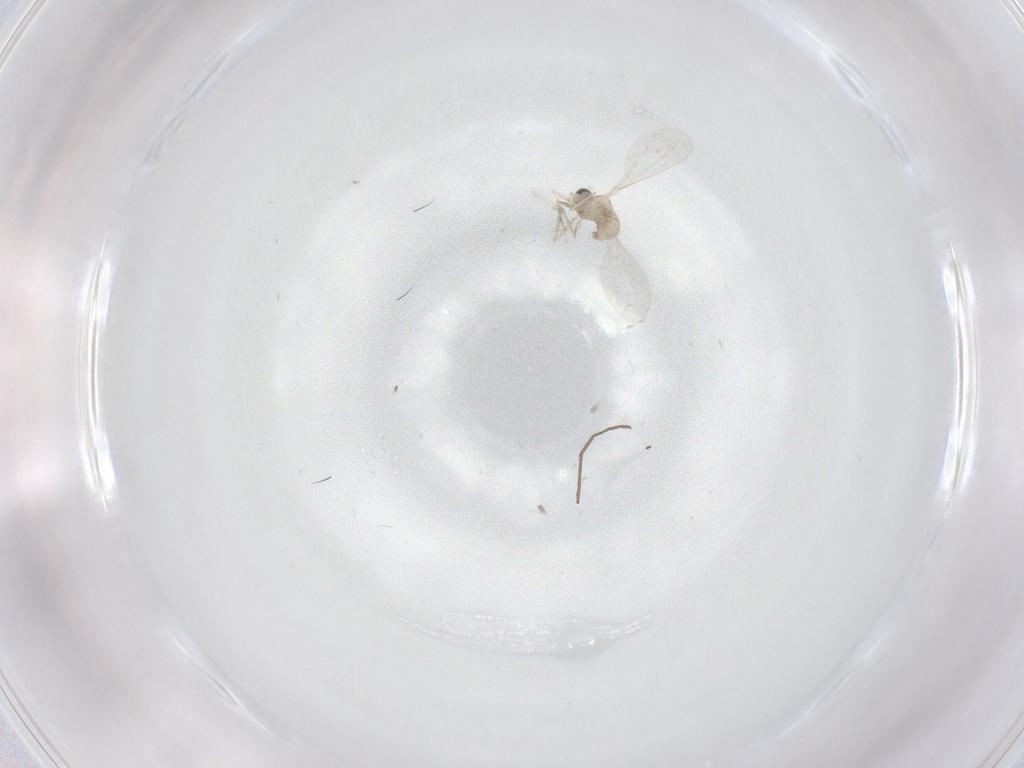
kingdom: Animalia
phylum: Arthropoda
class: Insecta
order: Diptera
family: Cecidomyiidae
